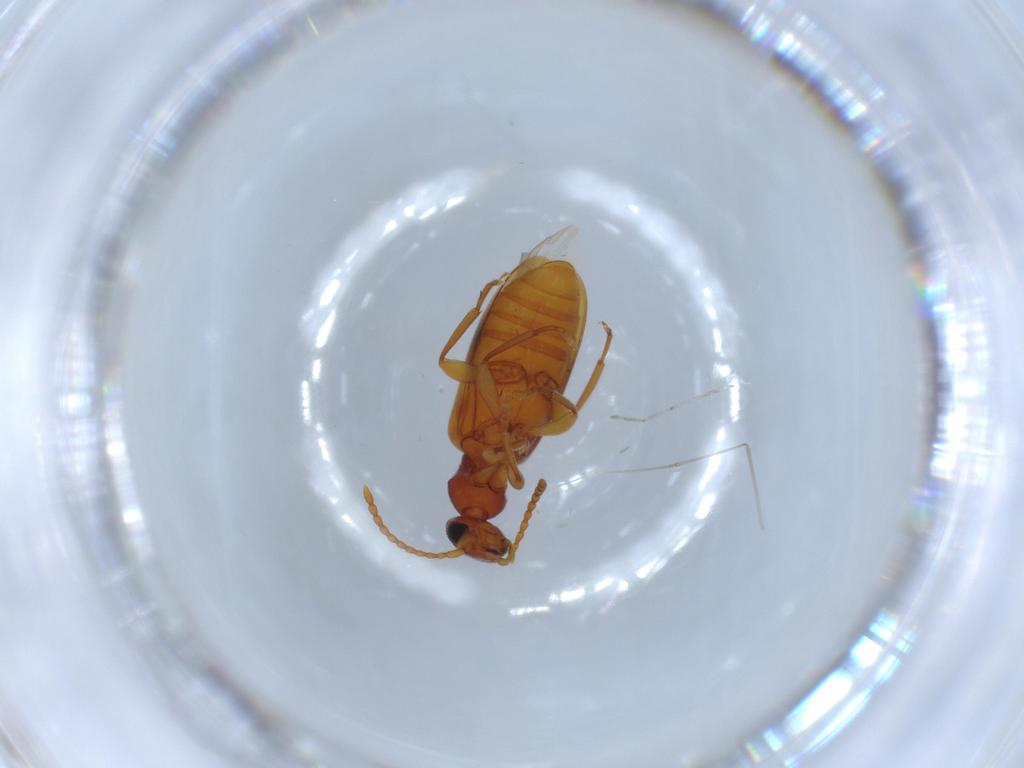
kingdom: Animalia
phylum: Arthropoda
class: Insecta
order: Coleoptera
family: Anthicidae
